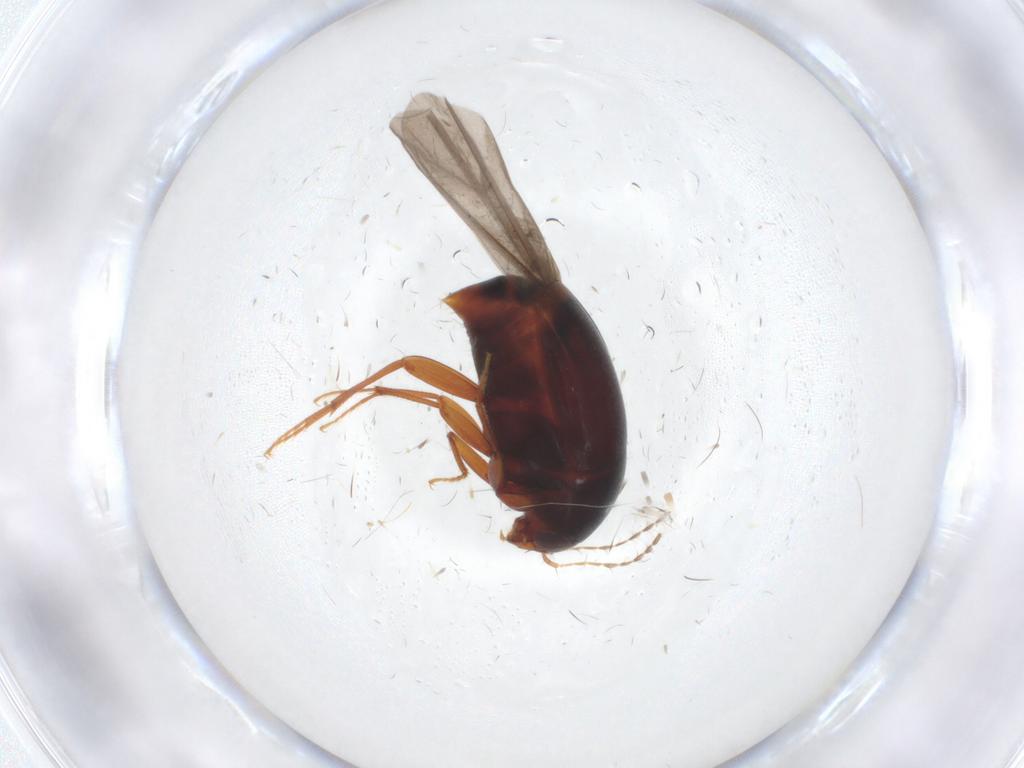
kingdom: Animalia
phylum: Arthropoda
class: Insecta
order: Coleoptera
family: Staphylinidae
